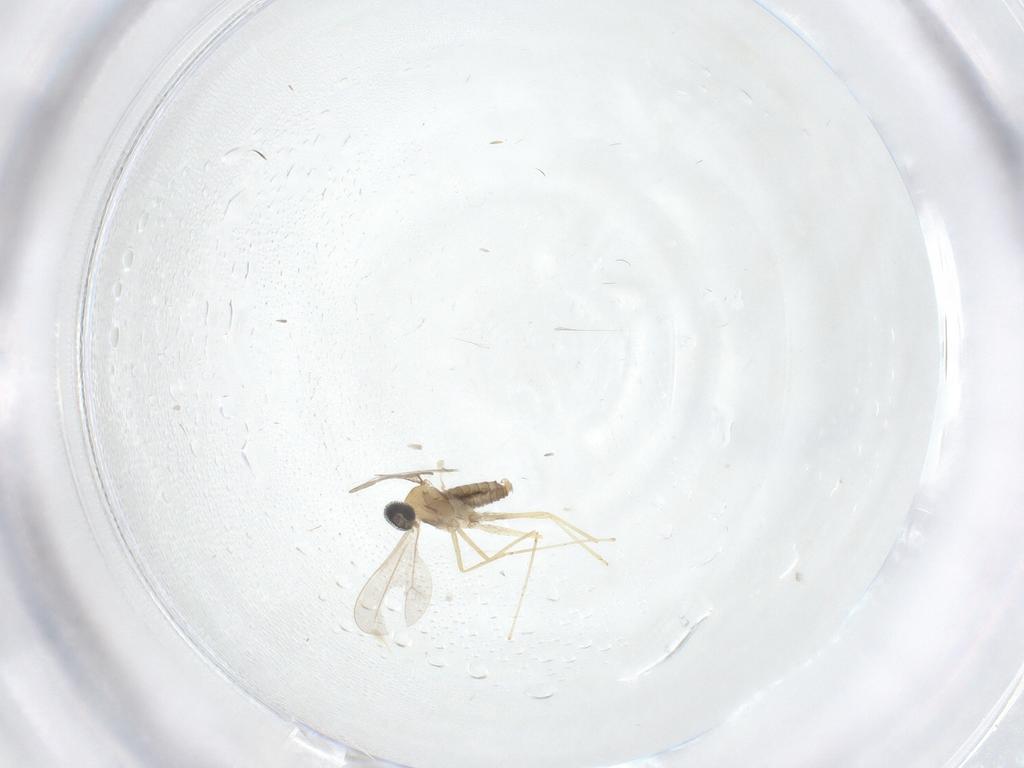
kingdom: Animalia
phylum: Arthropoda
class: Insecta
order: Diptera
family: Cecidomyiidae
